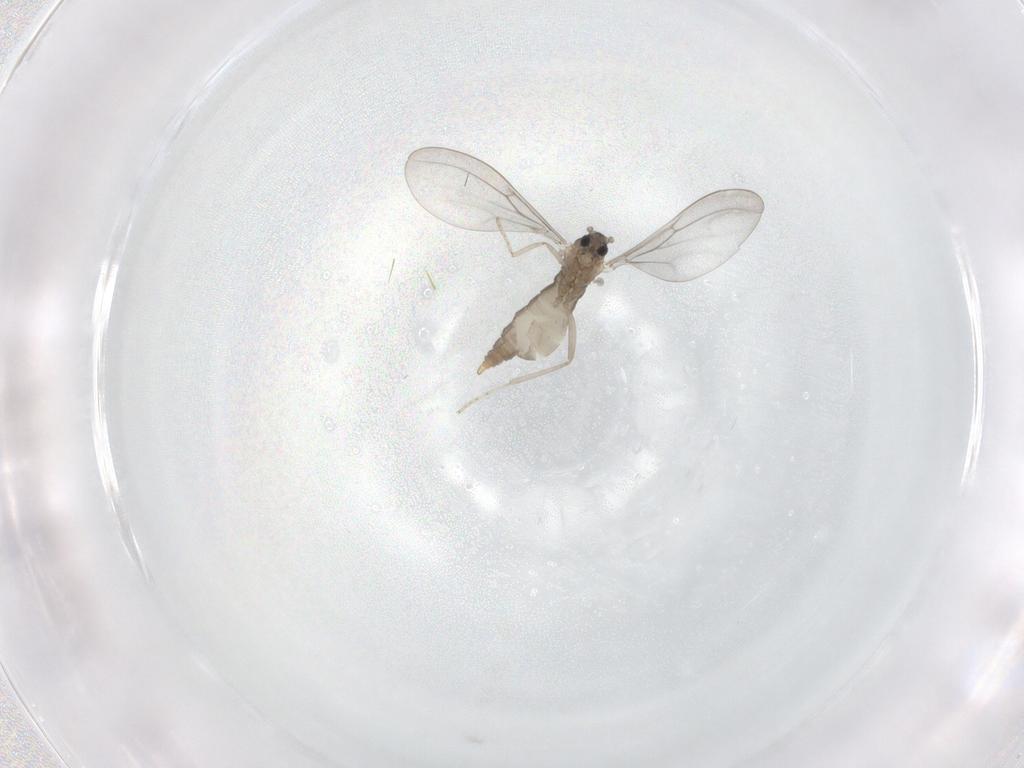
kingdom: Animalia
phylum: Arthropoda
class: Insecta
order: Diptera
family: Cecidomyiidae
